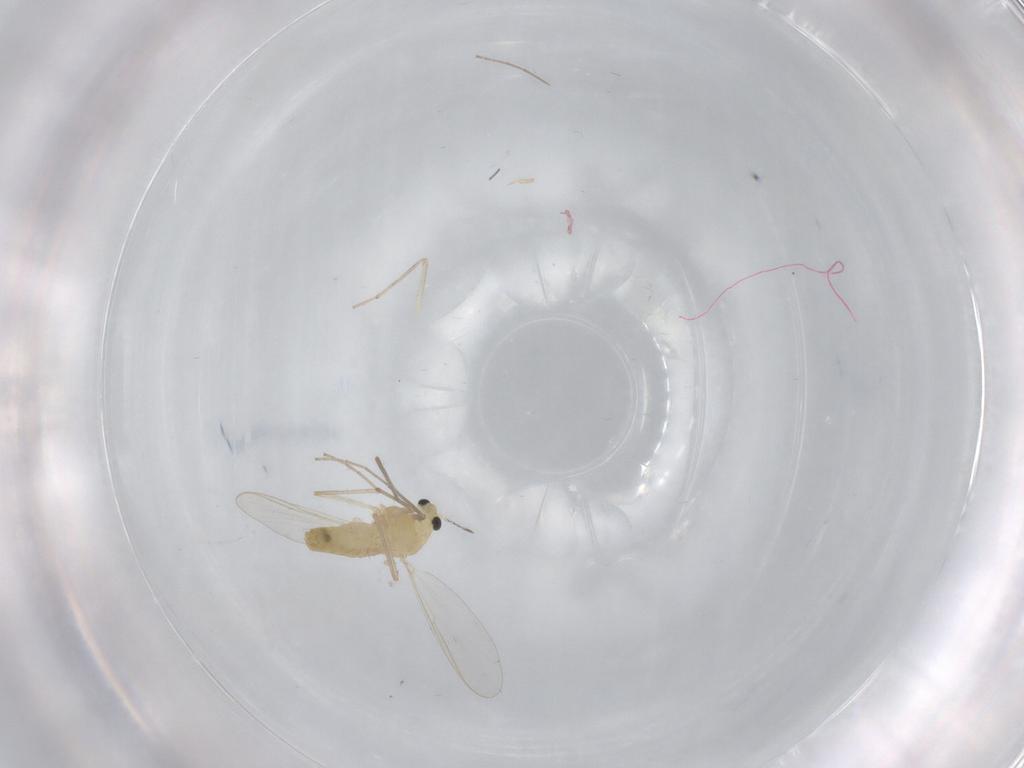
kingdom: Animalia
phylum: Arthropoda
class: Insecta
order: Diptera
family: Chironomidae
